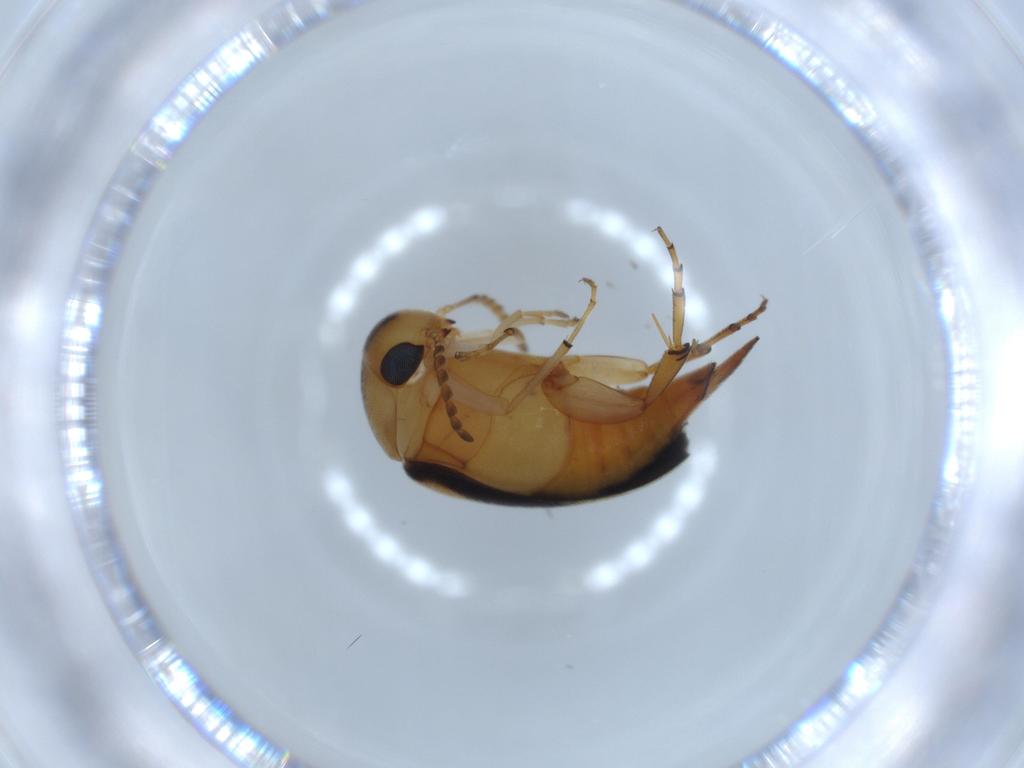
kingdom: Animalia
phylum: Arthropoda
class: Insecta
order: Coleoptera
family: Mordellidae
